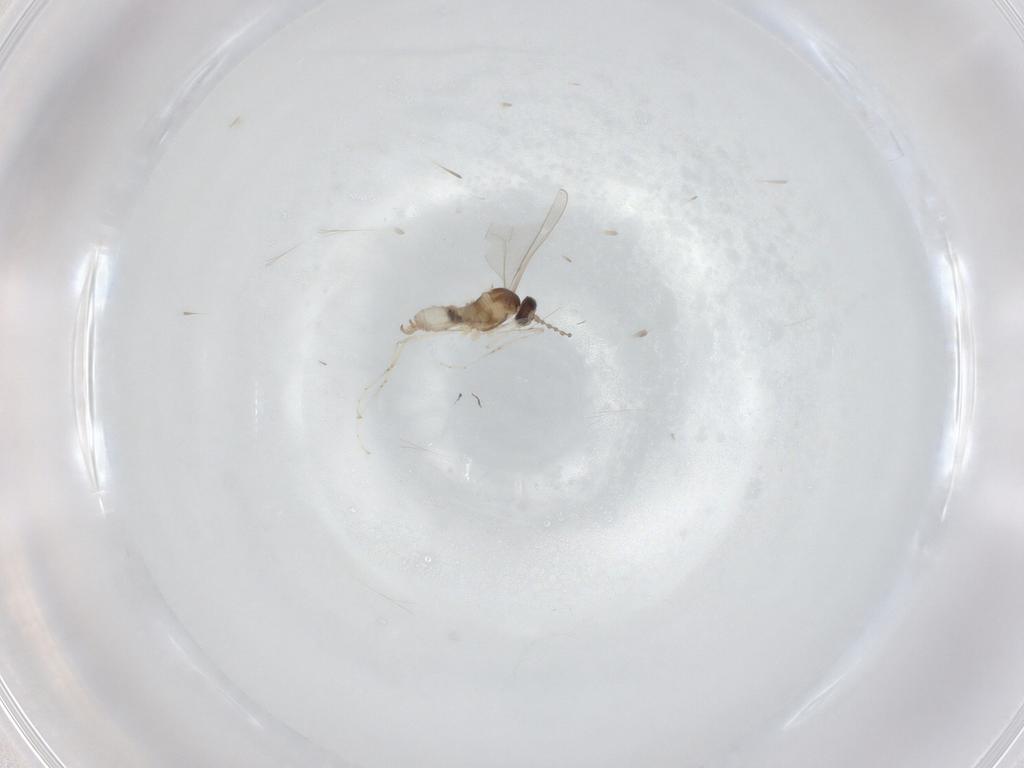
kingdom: Animalia
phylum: Arthropoda
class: Insecta
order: Diptera
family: Cecidomyiidae
